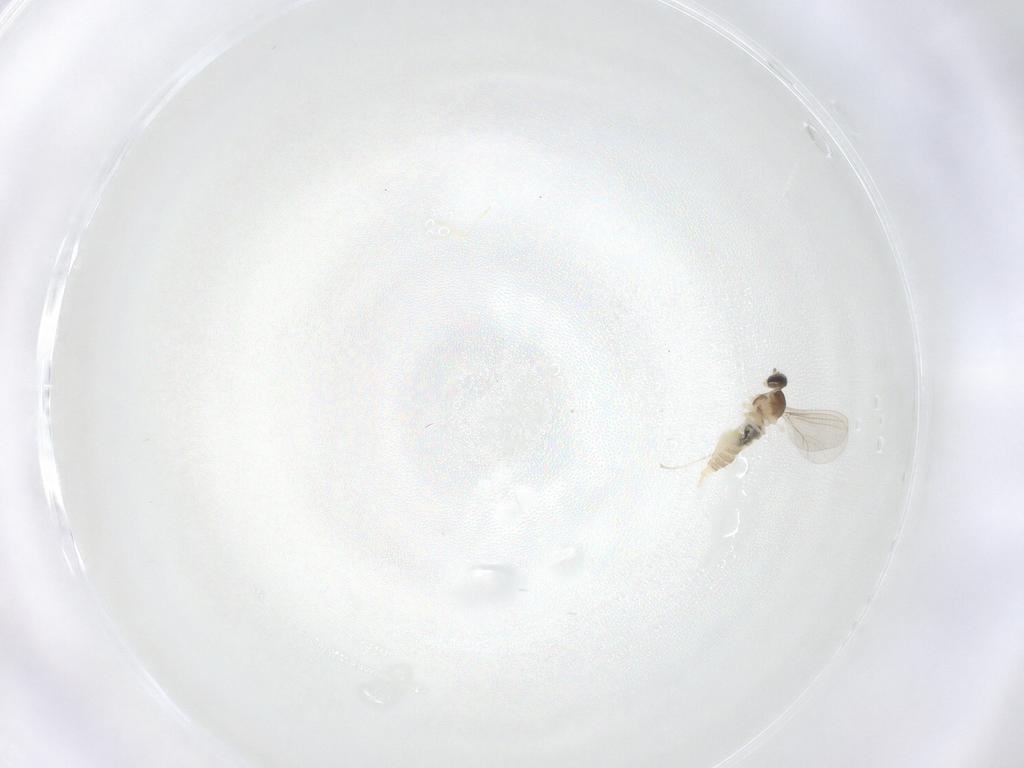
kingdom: Animalia
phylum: Arthropoda
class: Insecta
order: Diptera
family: Cecidomyiidae
